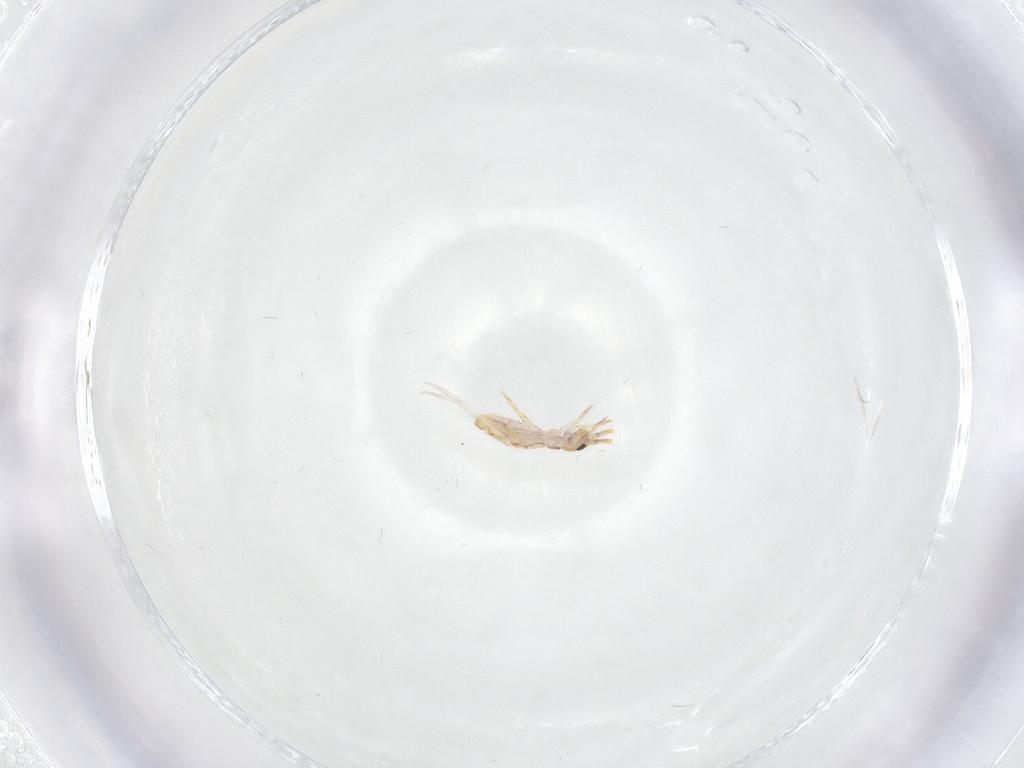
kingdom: Animalia
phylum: Arthropoda
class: Collembola
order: Entomobryomorpha
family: Entomobryidae
